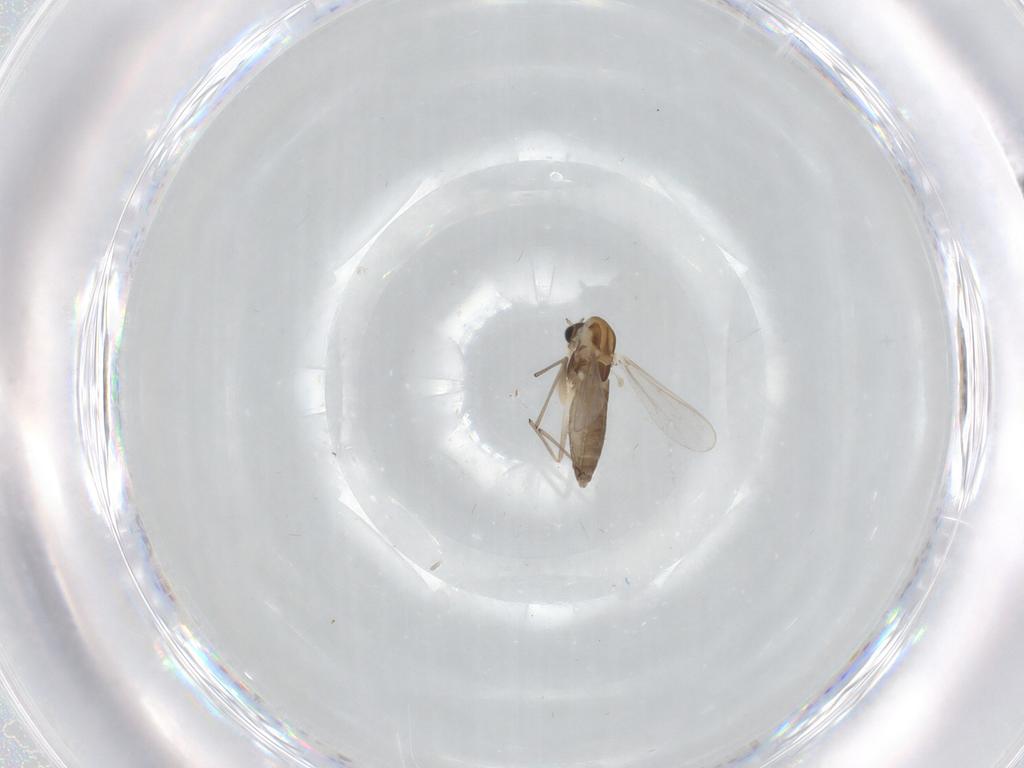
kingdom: Animalia
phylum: Arthropoda
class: Insecta
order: Diptera
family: Chironomidae
